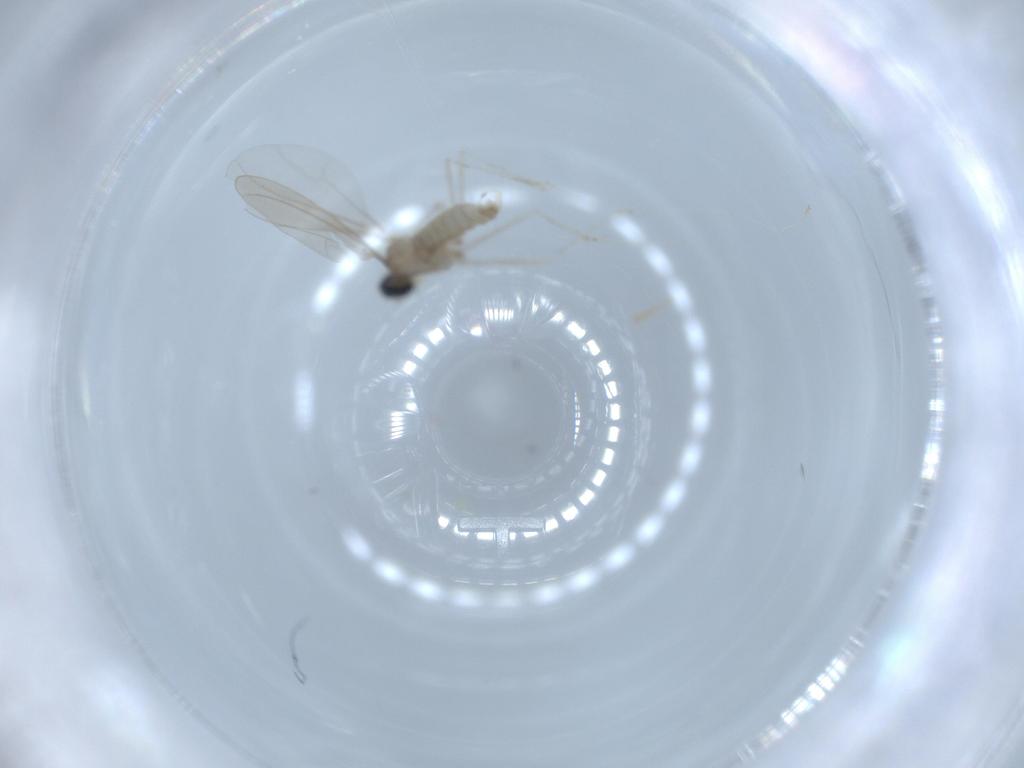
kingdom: Animalia
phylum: Arthropoda
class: Insecta
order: Diptera
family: Cecidomyiidae
